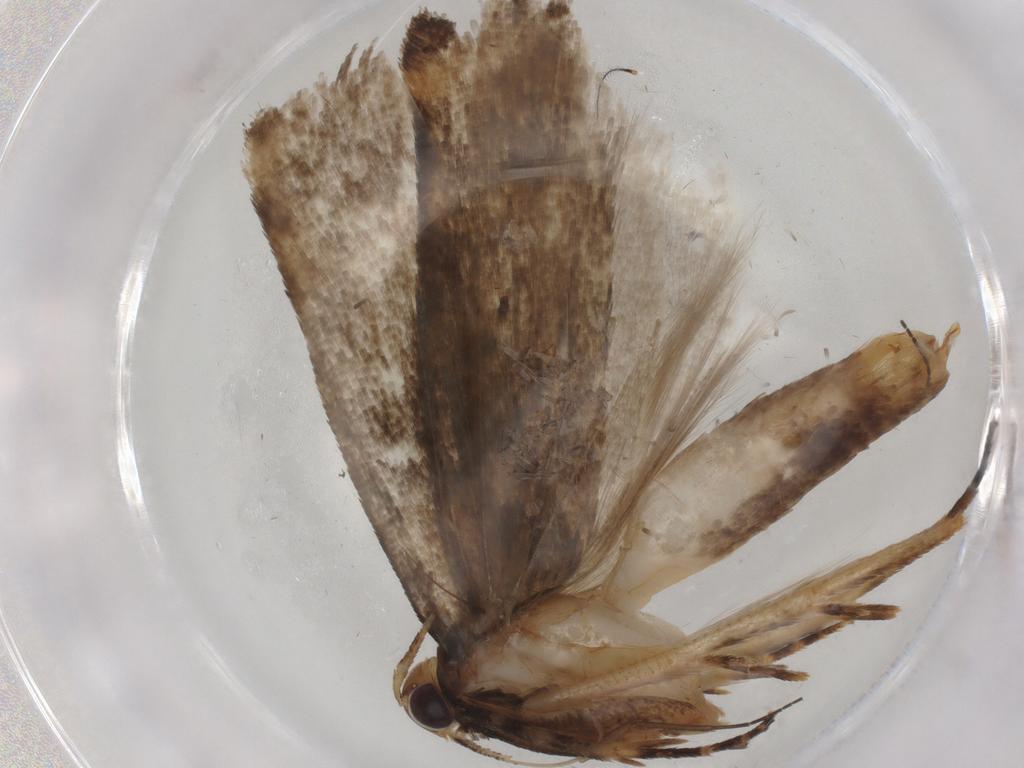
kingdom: Animalia
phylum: Arthropoda
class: Insecta
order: Lepidoptera
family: Gelechiidae
